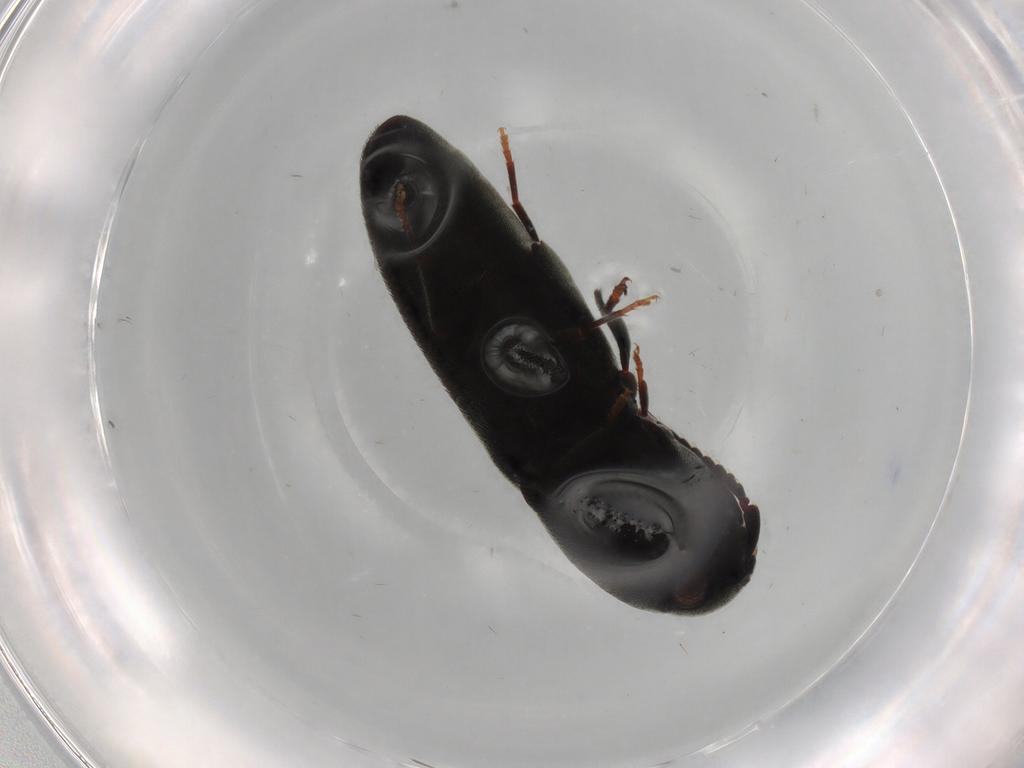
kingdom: Animalia
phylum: Arthropoda
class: Insecta
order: Coleoptera
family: Eucnemidae
